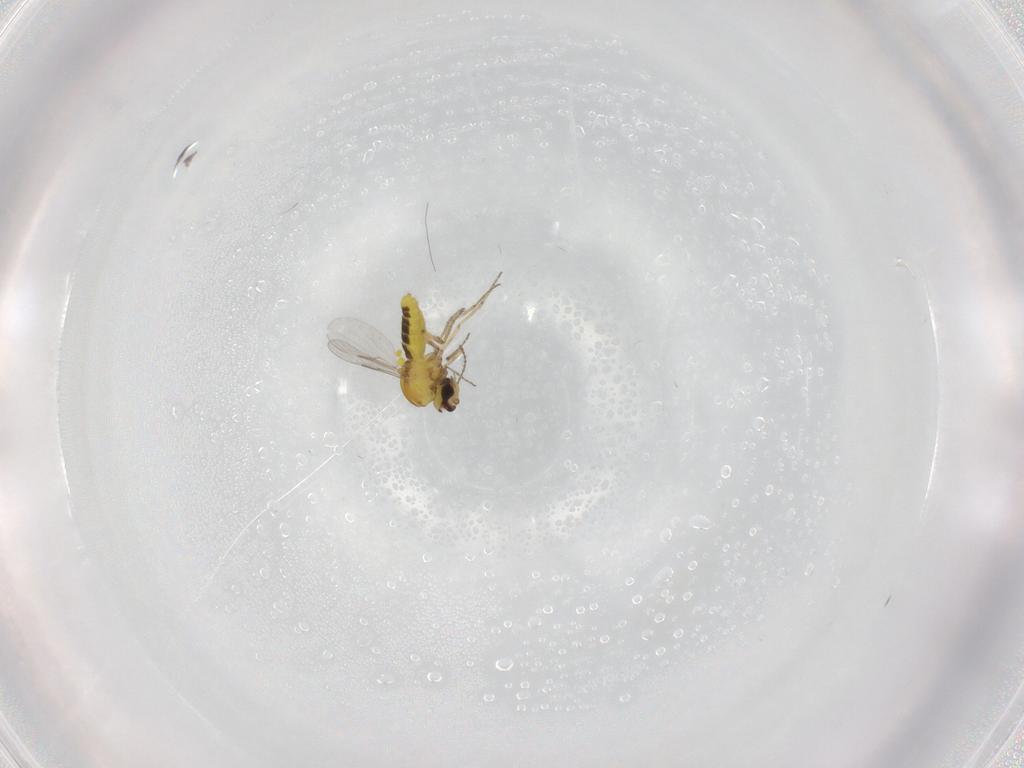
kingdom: Animalia
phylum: Arthropoda
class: Insecta
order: Diptera
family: Ceratopogonidae
